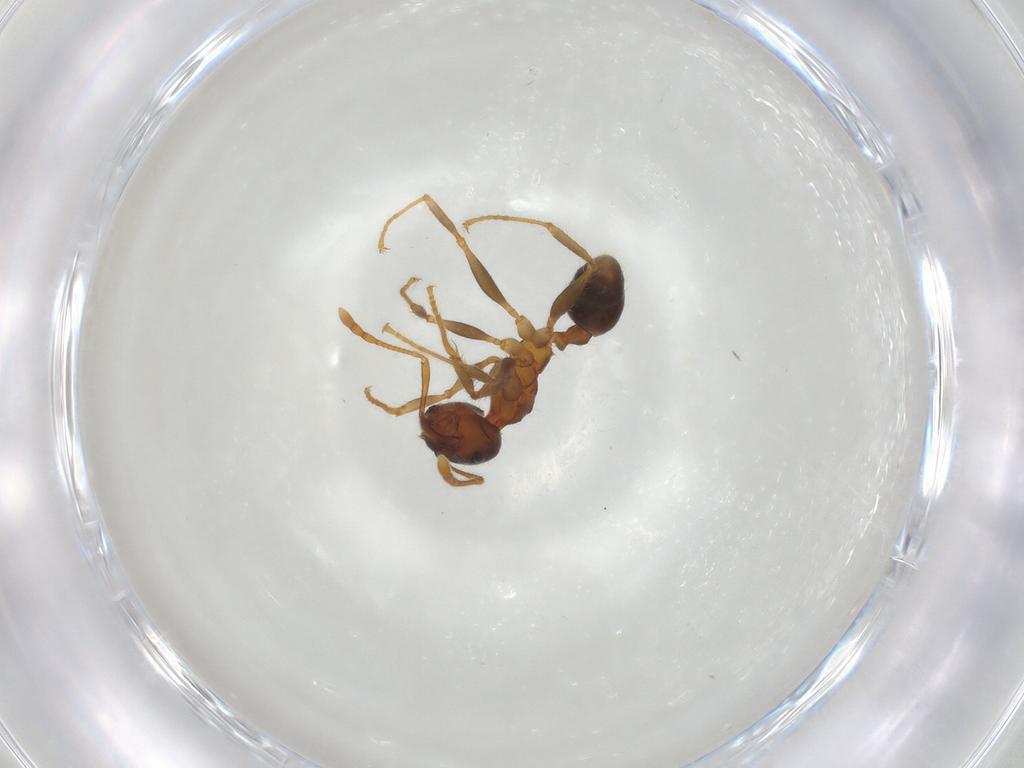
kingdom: Animalia
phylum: Arthropoda
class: Insecta
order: Hymenoptera
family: Formicidae
